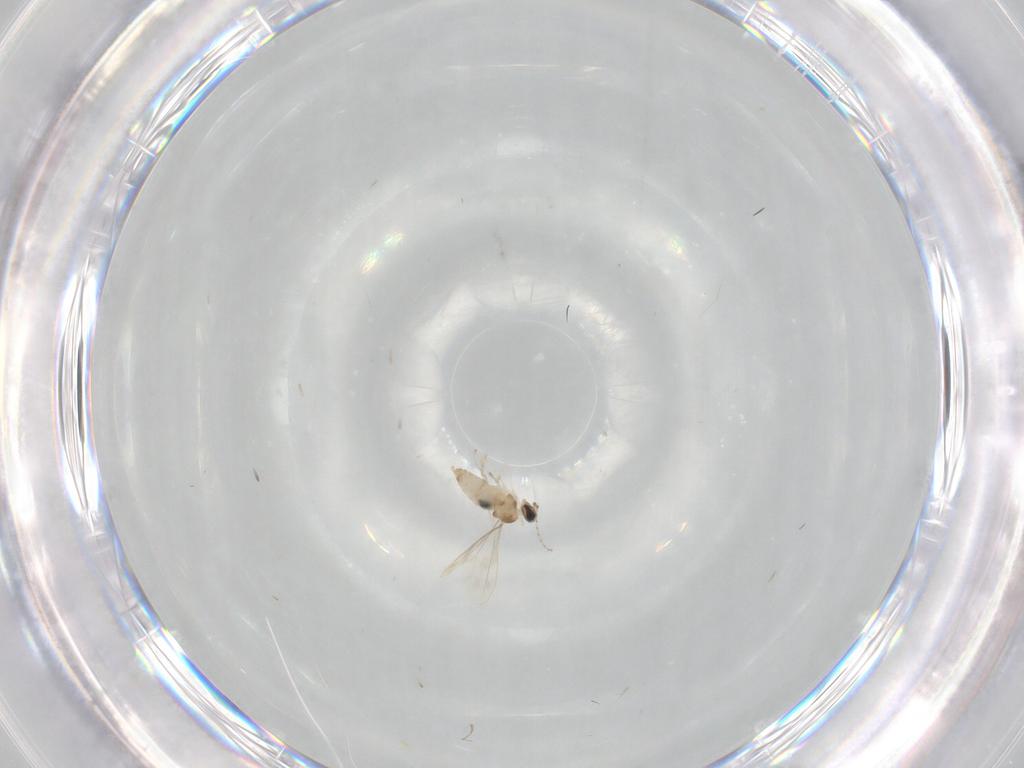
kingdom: Animalia
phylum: Arthropoda
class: Insecta
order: Diptera
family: Cecidomyiidae
